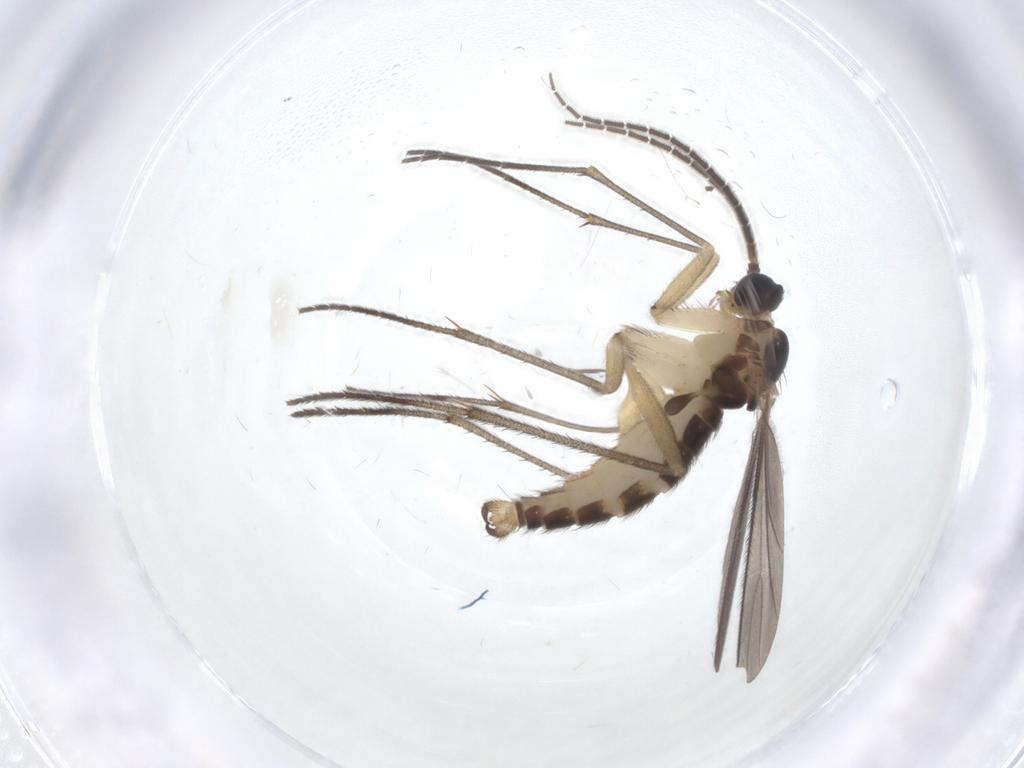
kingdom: Animalia
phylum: Arthropoda
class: Insecta
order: Diptera
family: Sciaridae
